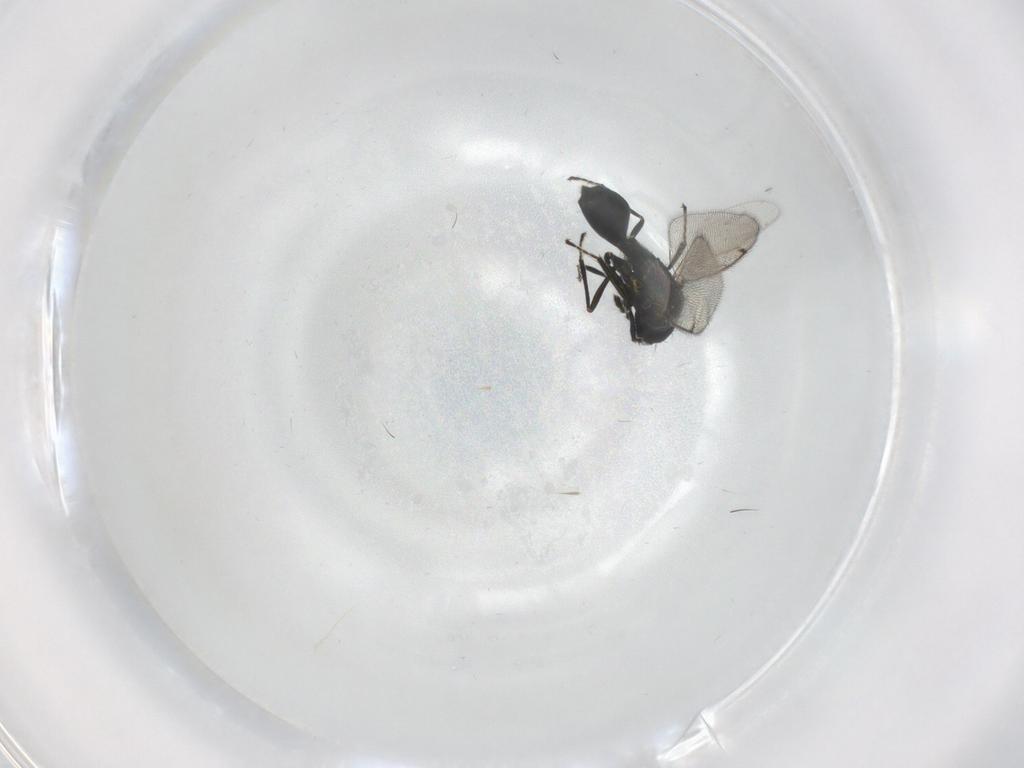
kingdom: Animalia
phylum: Arthropoda
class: Insecta
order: Hymenoptera
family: Eulophidae
